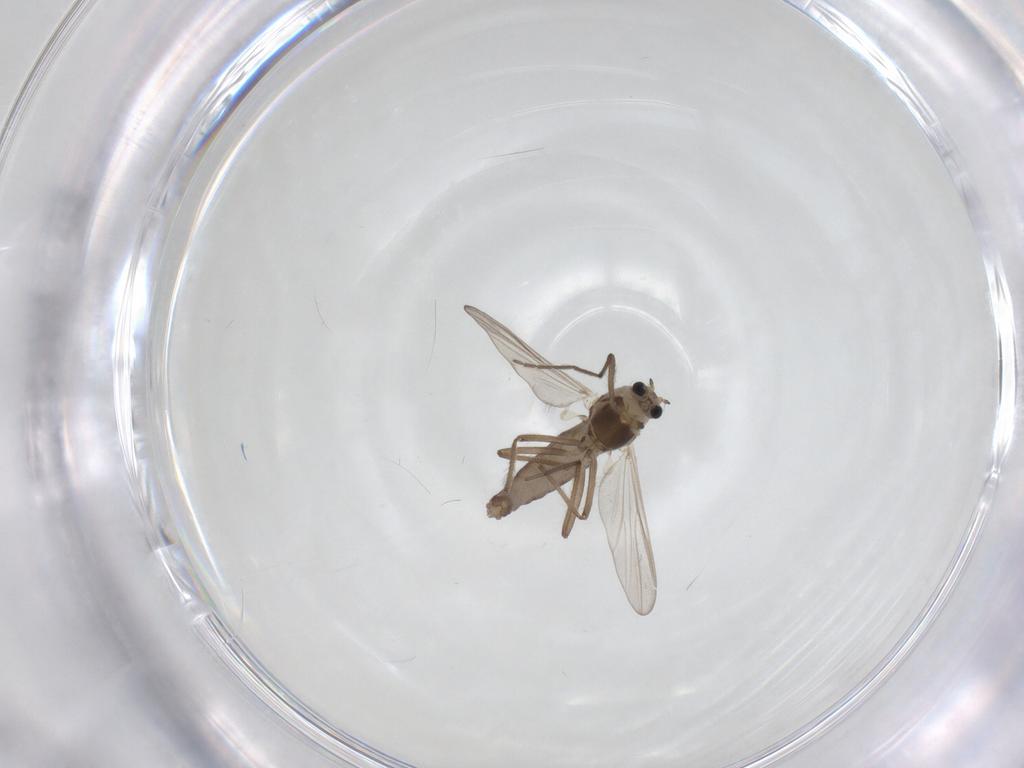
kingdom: Animalia
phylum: Arthropoda
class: Insecta
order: Diptera
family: Chironomidae
